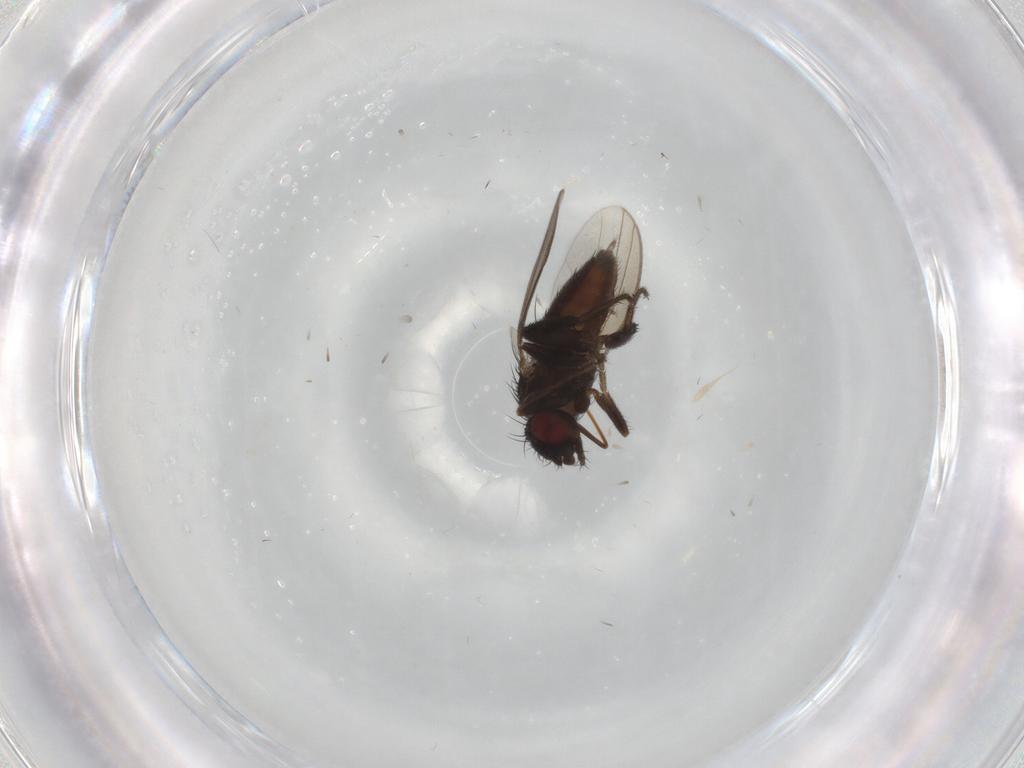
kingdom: Animalia
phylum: Arthropoda
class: Insecta
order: Diptera
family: Milichiidae
